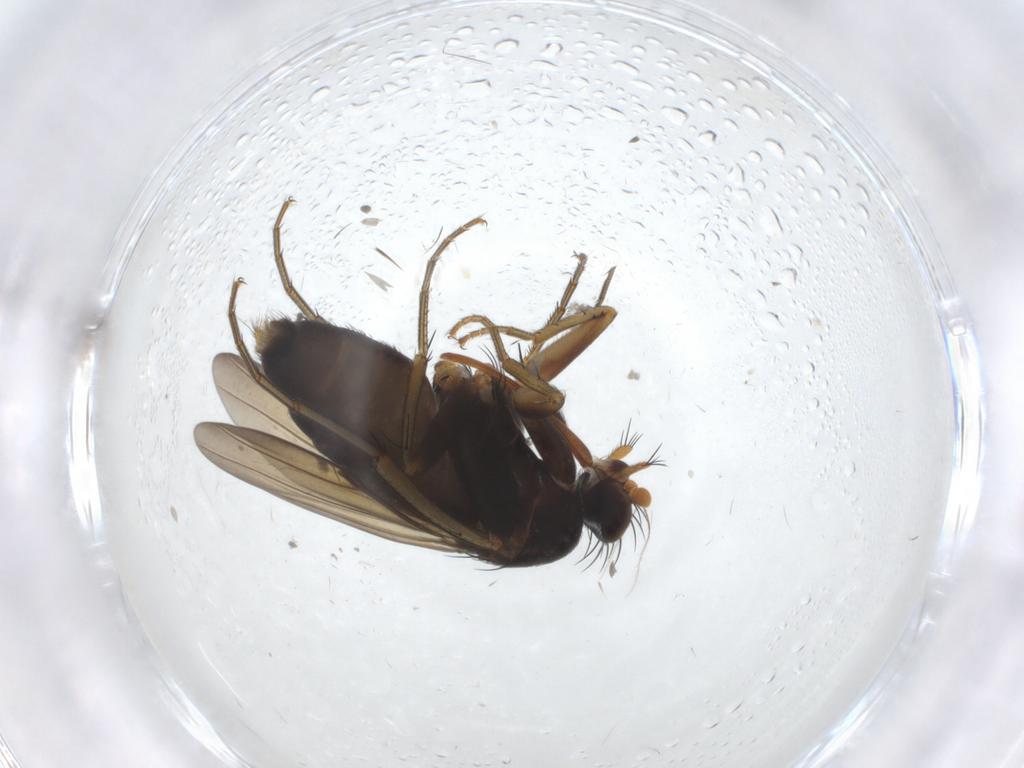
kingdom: Animalia
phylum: Arthropoda
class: Insecta
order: Diptera
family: Phoridae
